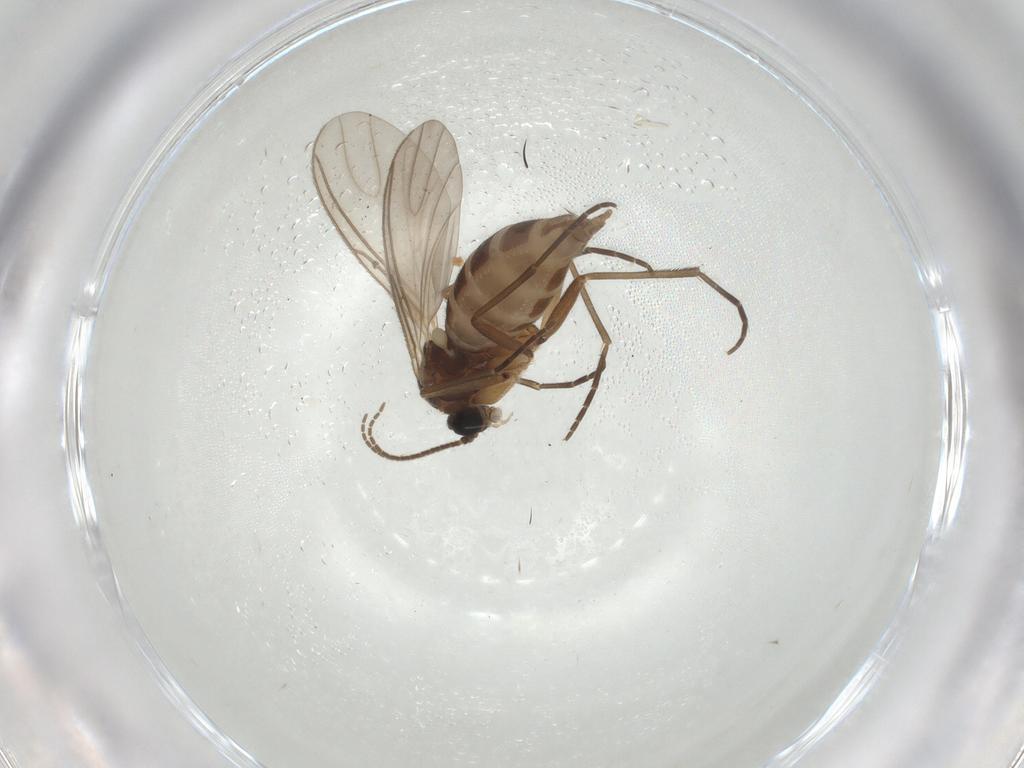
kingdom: Animalia
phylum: Arthropoda
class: Insecta
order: Diptera
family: Sciaridae
